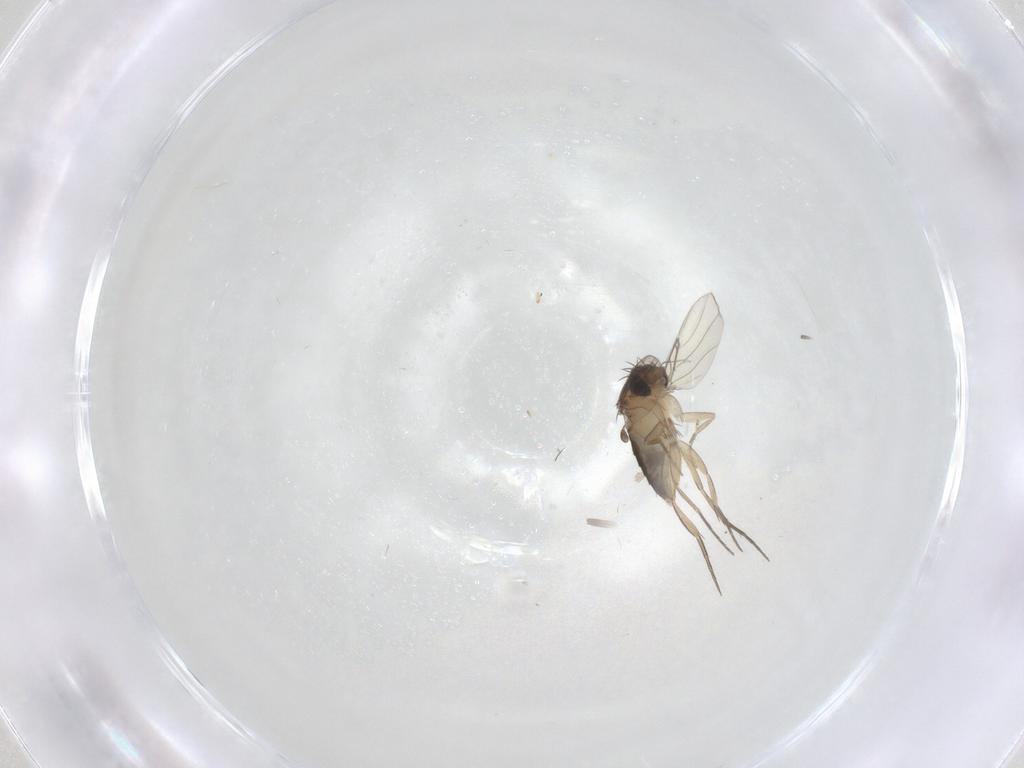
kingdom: Animalia
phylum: Arthropoda
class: Insecta
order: Diptera
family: Phoridae
